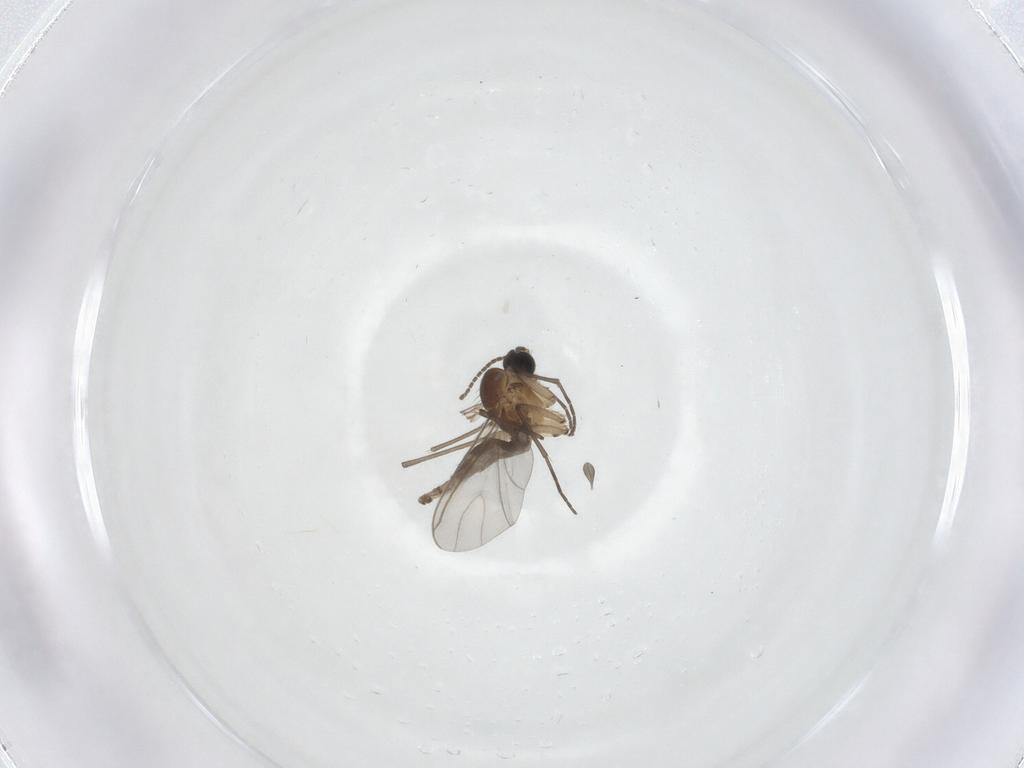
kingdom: Animalia
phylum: Arthropoda
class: Insecta
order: Diptera
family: Sciaridae
